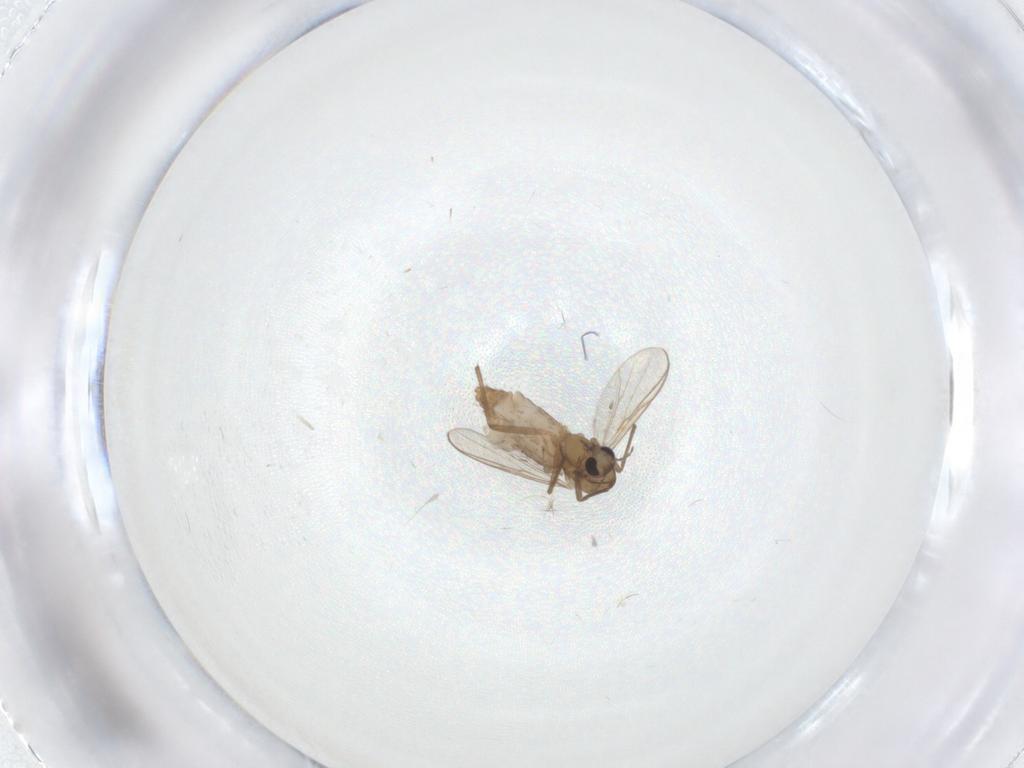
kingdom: Animalia
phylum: Arthropoda
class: Insecta
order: Diptera
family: Chironomidae
